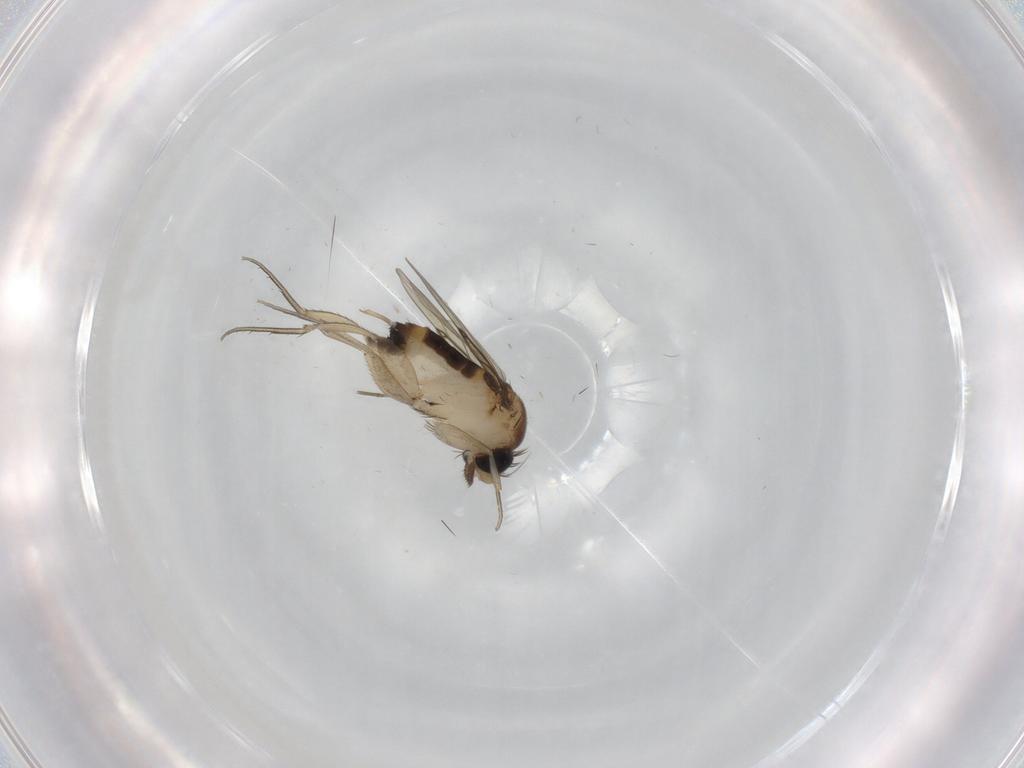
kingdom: Animalia
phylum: Arthropoda
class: Insecta
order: Diptera
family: Phoridae
